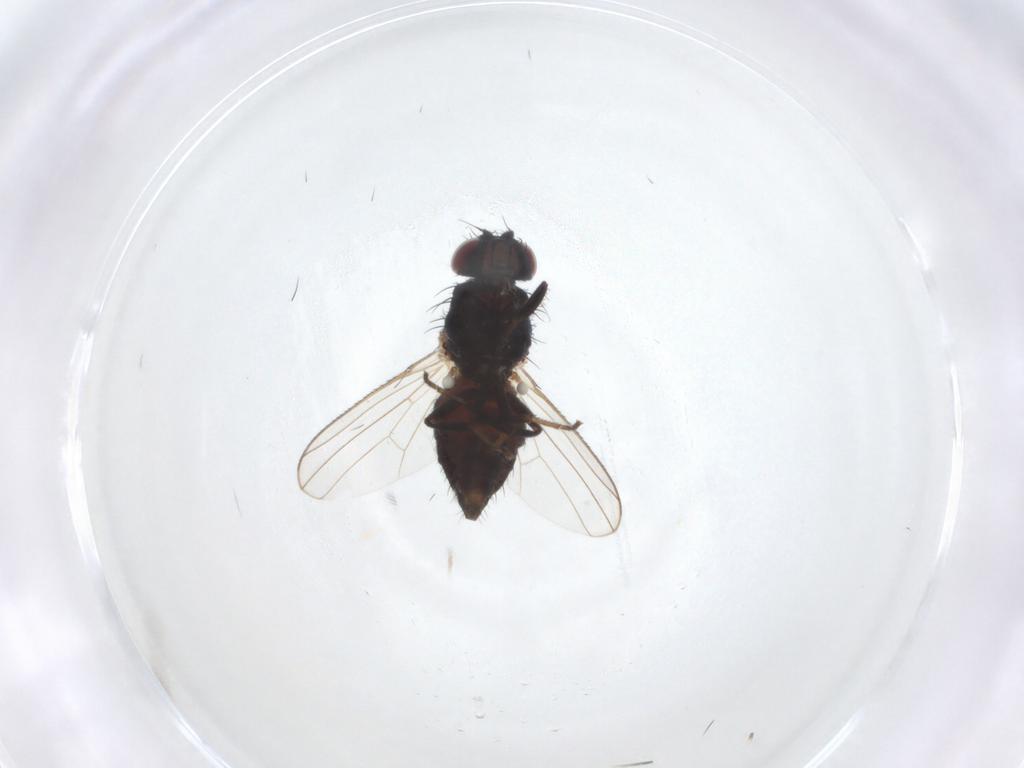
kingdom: Animalia
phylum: Arthropoda
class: Insecta
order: Diptera
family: Carnidae
